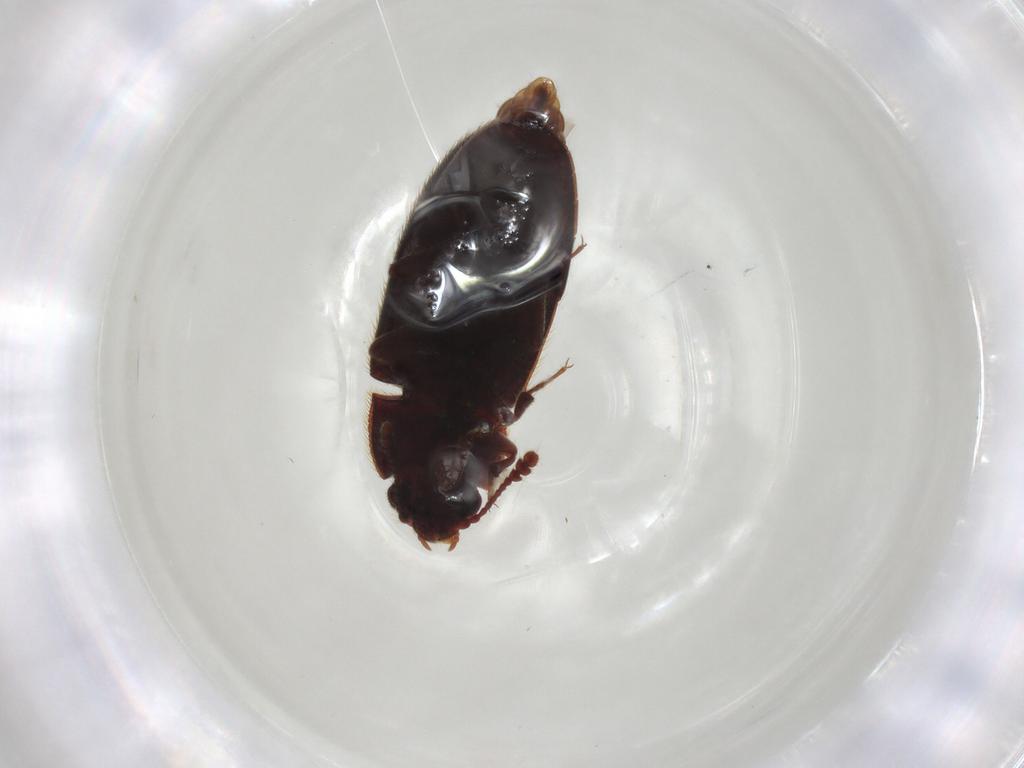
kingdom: Animalia
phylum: Arthropoda
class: Insecta
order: Coleoptera
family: Biphyllidae
